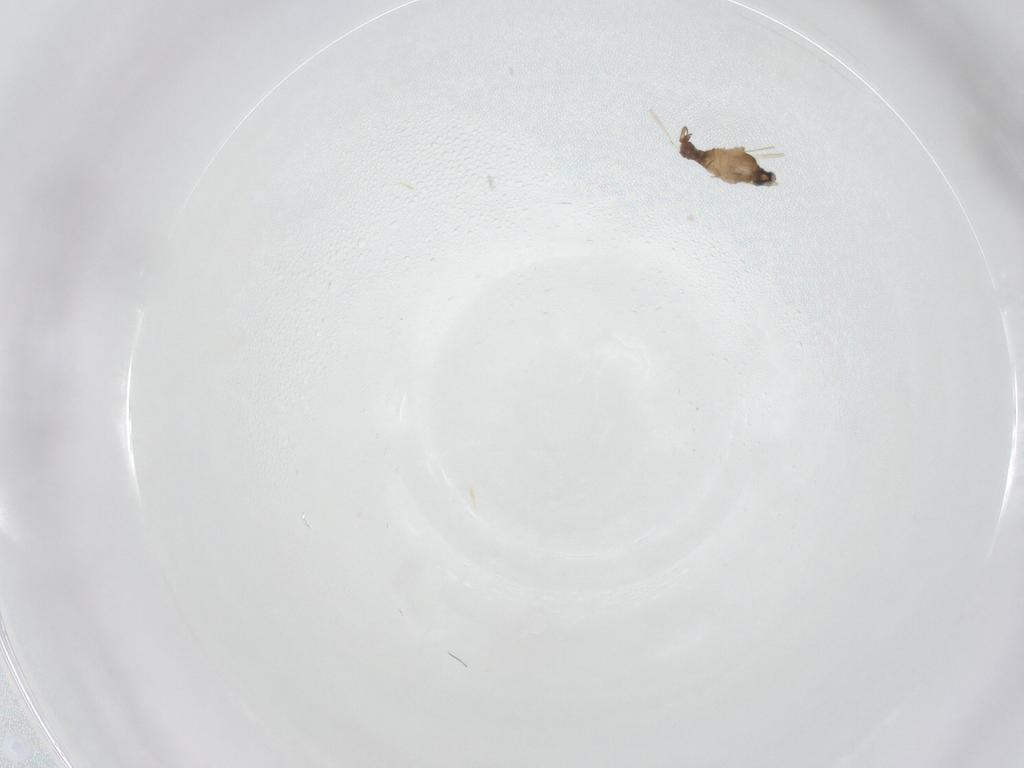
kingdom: Animalia
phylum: Arthropoda
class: Insecta
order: Diptera
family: Cecidomyiidae
